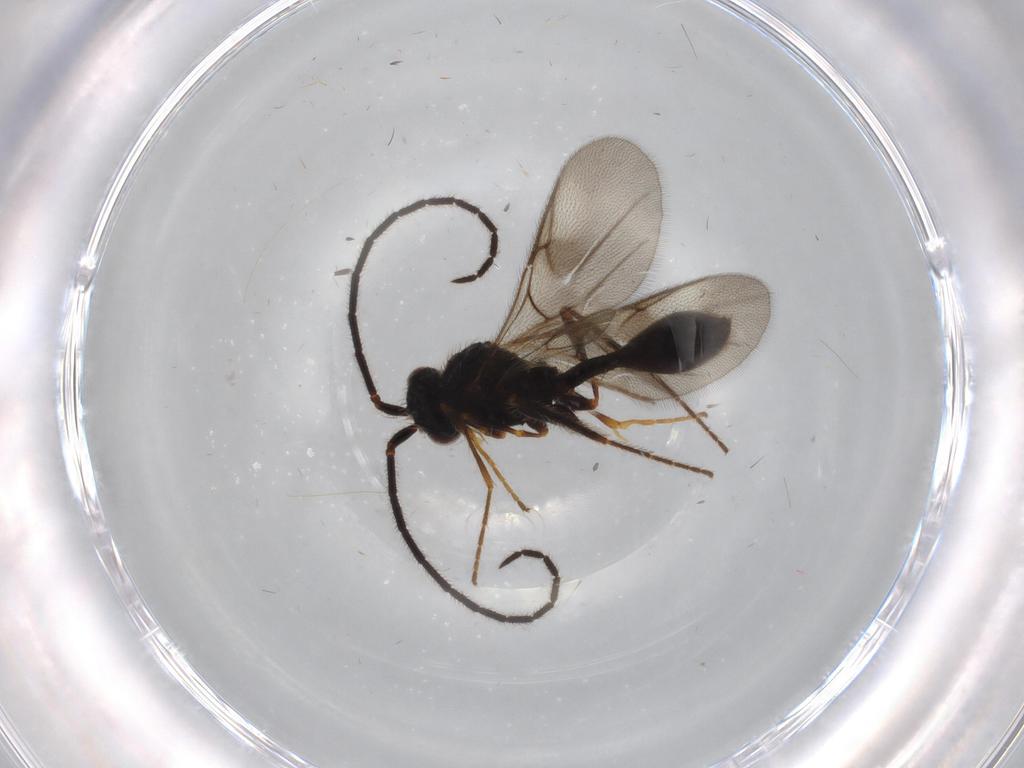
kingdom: Animalia
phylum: Arthropoda
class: Insecta
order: Hymenoptera
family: Diapriidae
